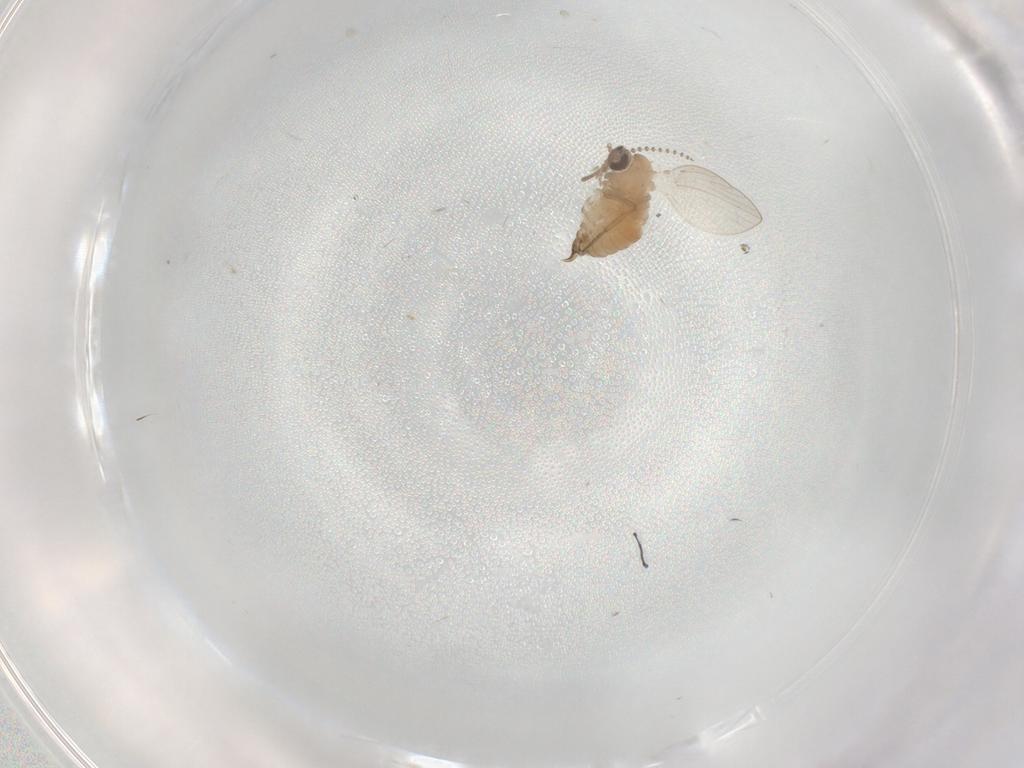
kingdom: Animalia
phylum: Arthropoda
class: Insecta
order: Diptera
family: Psychodidae
